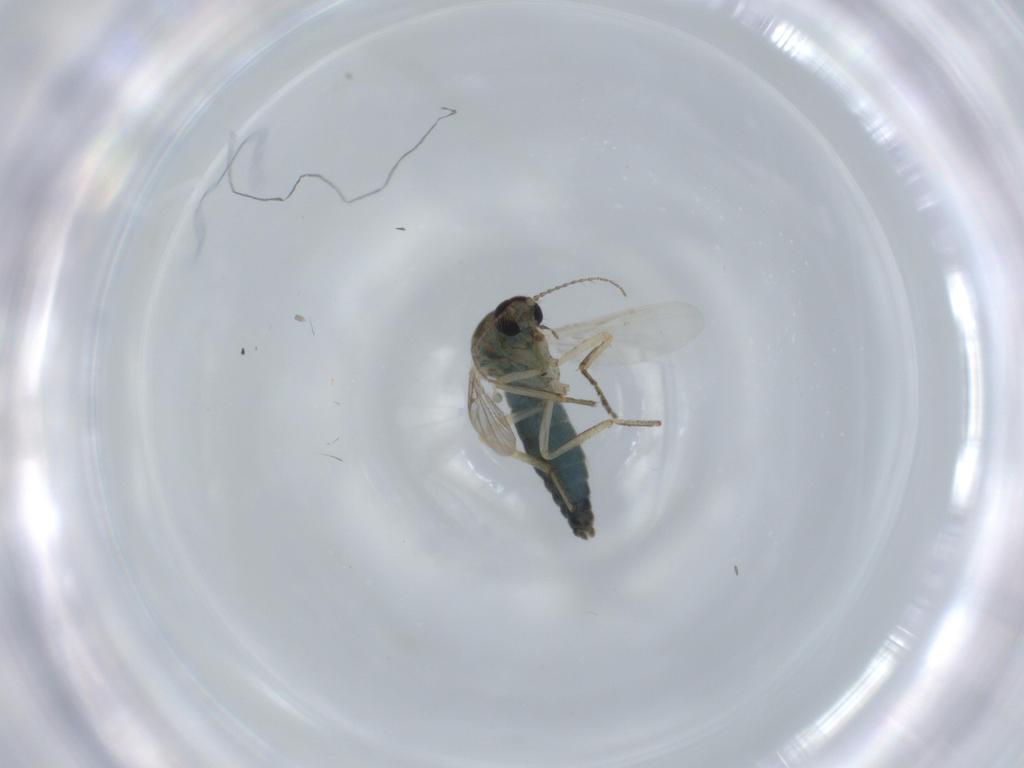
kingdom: Animalia
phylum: Arthropoda
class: Insecta
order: Diptera
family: Ceratopogonidae
